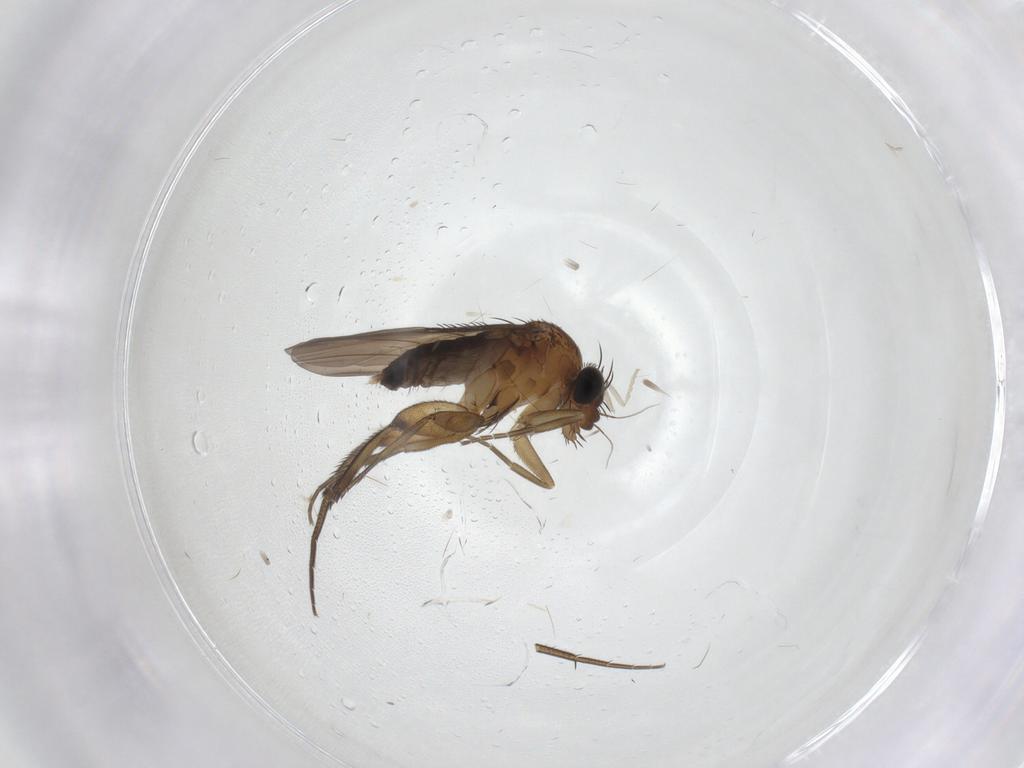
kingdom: Animalia
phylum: Arthropoda
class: Insecta
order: Diptera
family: Phoridae
